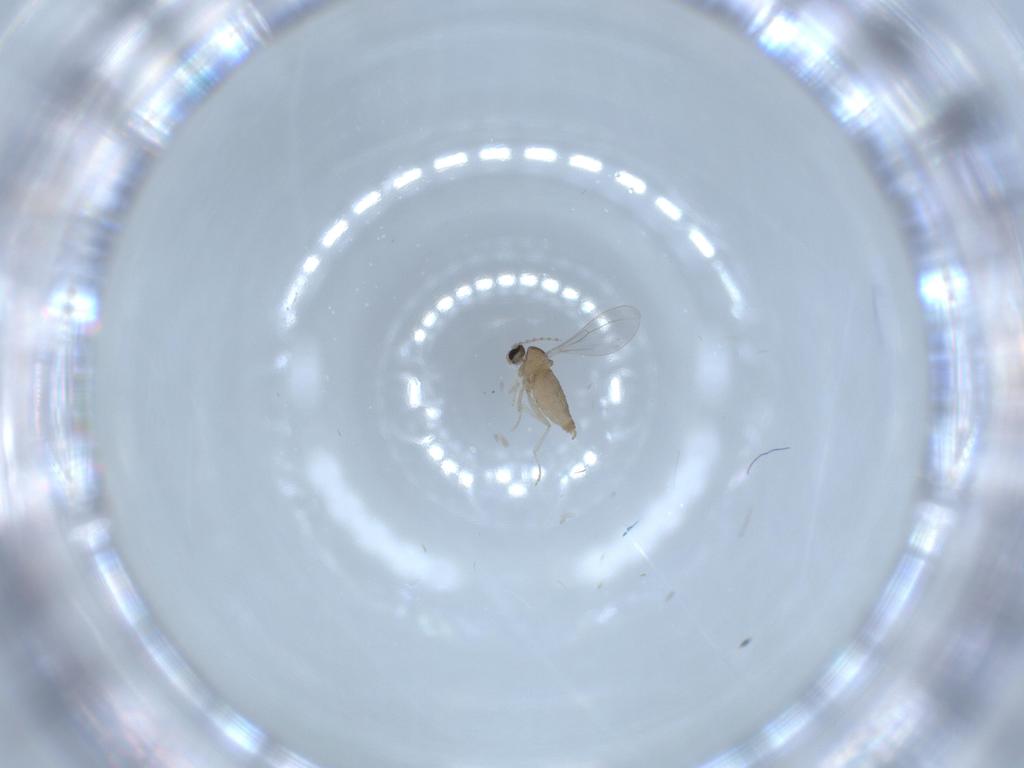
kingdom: Animalia
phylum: Arthropoda
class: Insecta
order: Diptera
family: Cecidomyiidae
